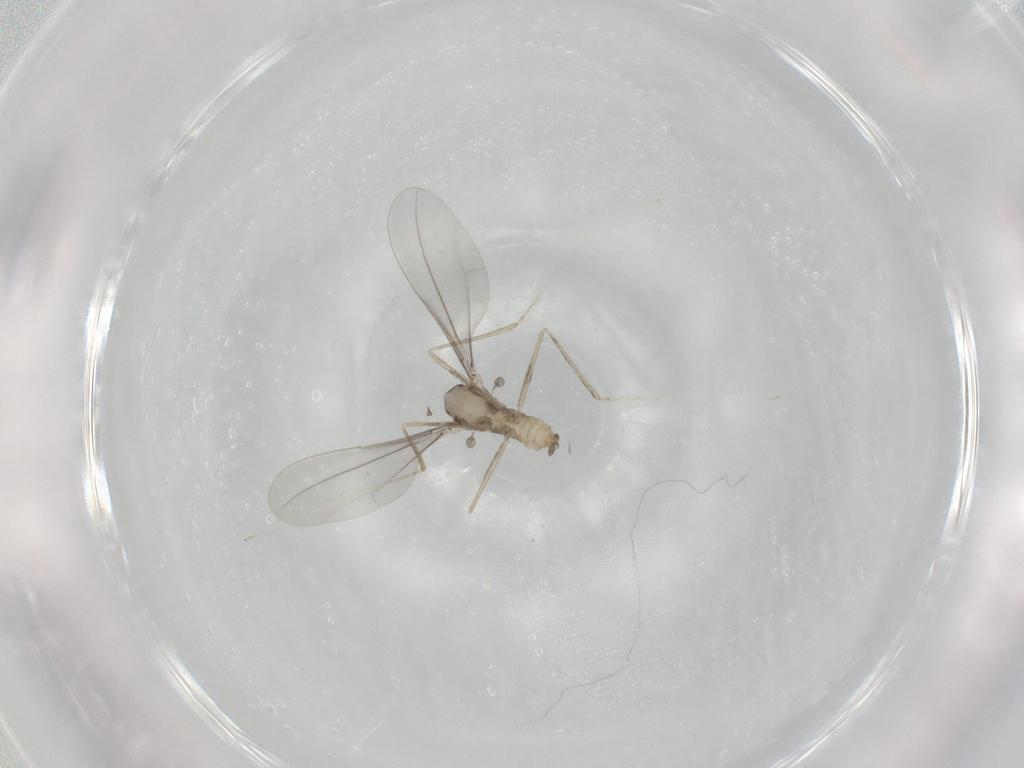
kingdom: Animalia
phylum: Arthropoda
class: Insecta
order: Diptera
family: Cecidomyiidae
